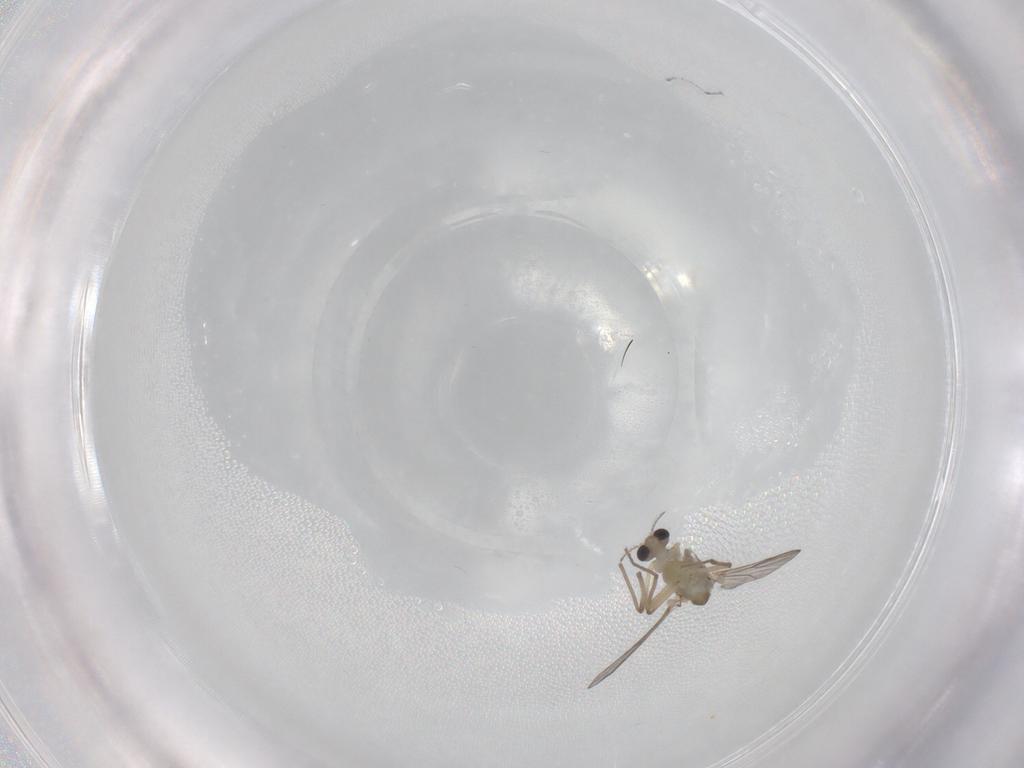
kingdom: Animalia
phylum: Arthropoda
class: Insecta
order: Diptera
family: Chironomidae
